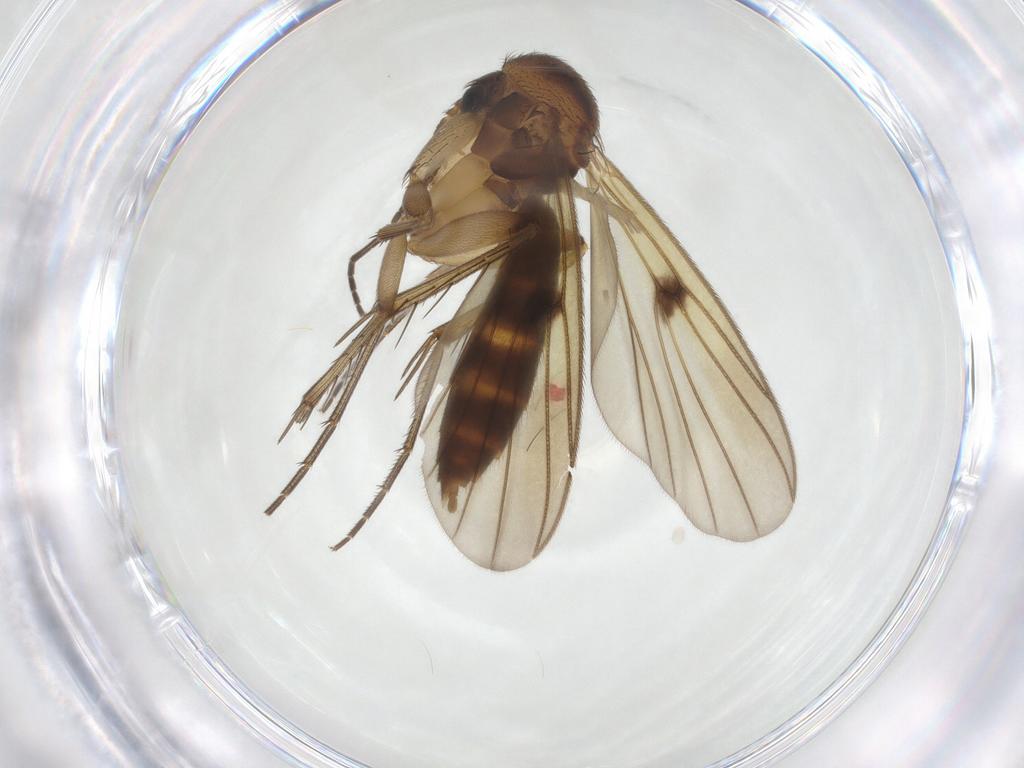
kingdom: Animalia
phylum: Arthropoda
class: Insecta
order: Diptera
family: Mycetophilidae
